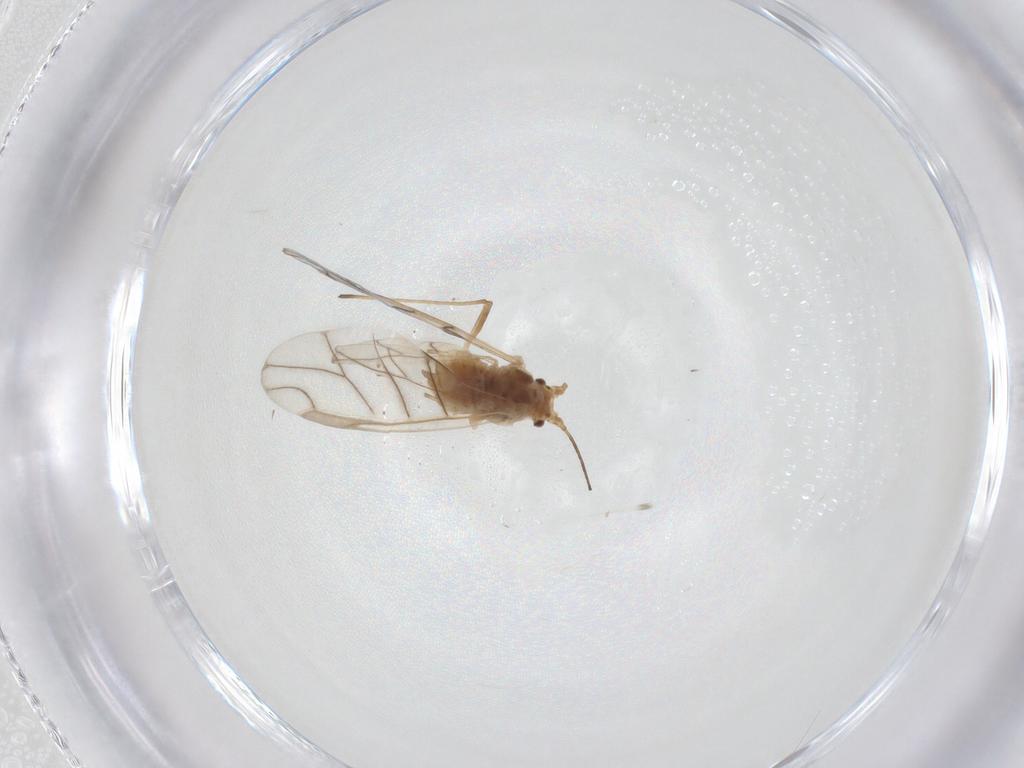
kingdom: Animalia
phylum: Arthropoda
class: Insecta
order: Hemiptera
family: Aphididae
